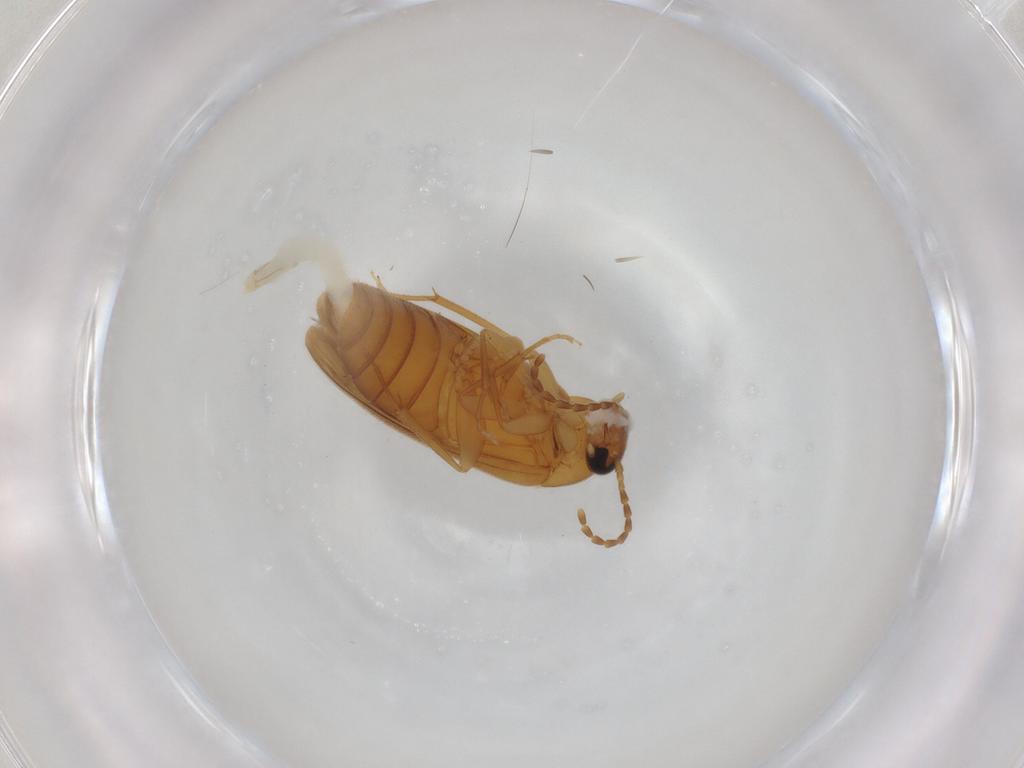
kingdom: Animalia
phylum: Arthropoda
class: Insecta
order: Coleoptera
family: Scraptiidae
